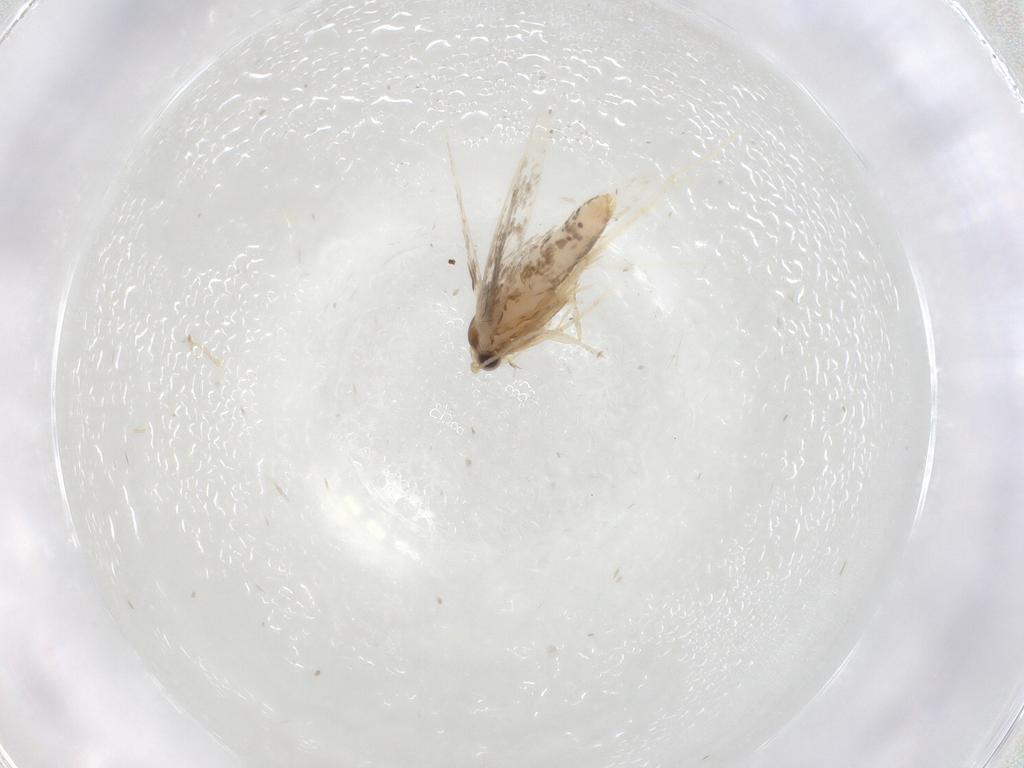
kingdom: Animalia
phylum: Arthropoda
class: Insecta
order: Lepidoptera
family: Nepticulidae
